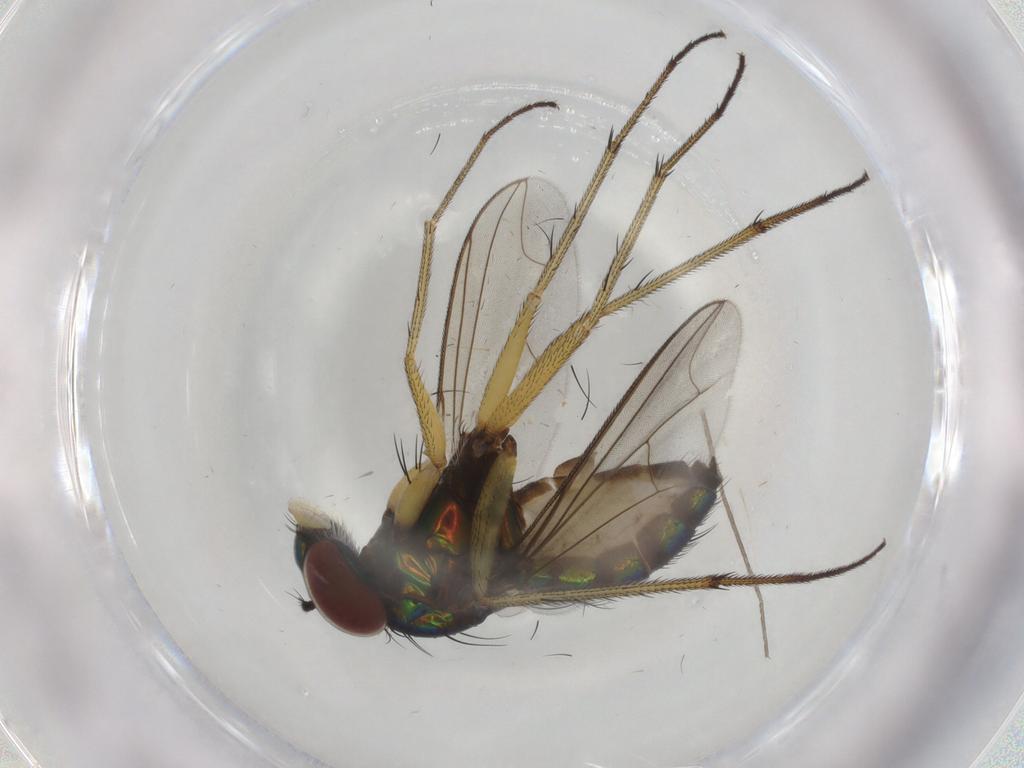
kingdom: Animalia
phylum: Arthropoda
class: Insecta
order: Diptera
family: Dolichopodidae
